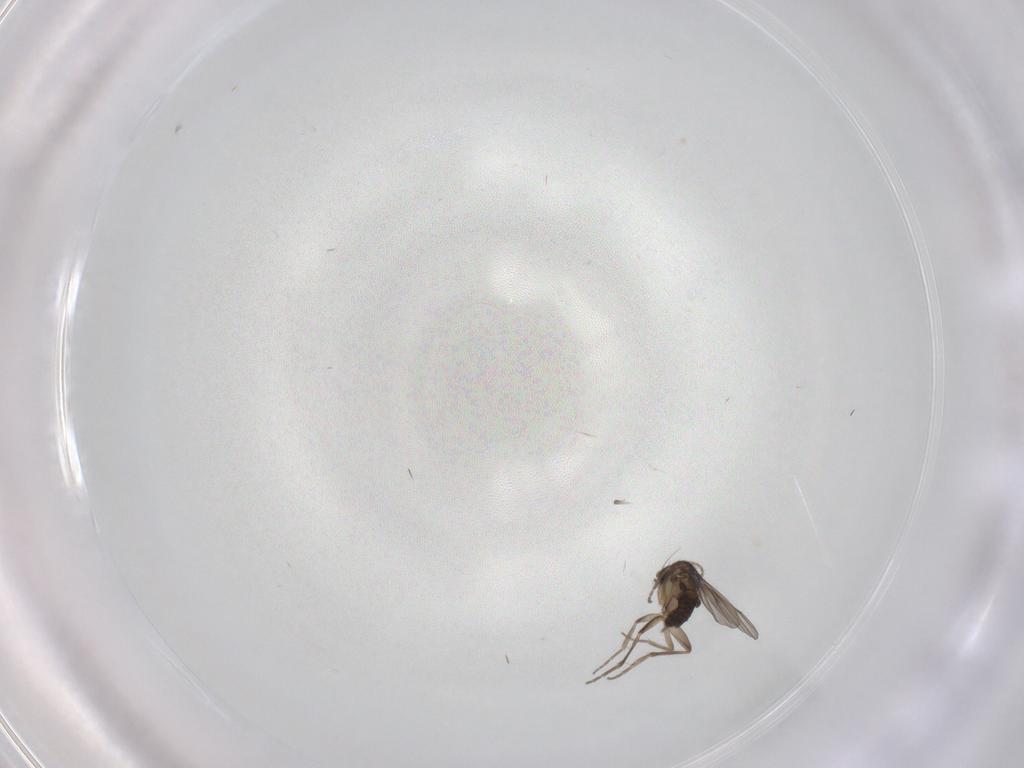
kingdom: Animalia
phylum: Arthropoda
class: Insecta
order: Diptera
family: Phoridae
